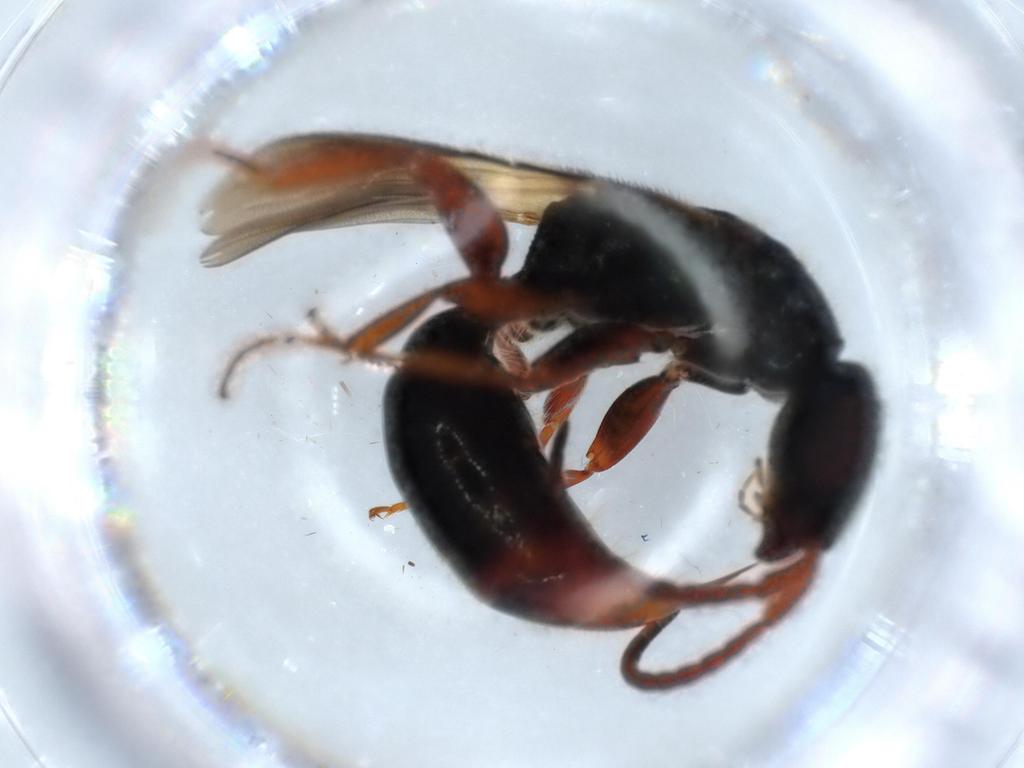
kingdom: Animalia
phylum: Arthropoda
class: Insecta
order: Hymenoptera
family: Bethylidae
